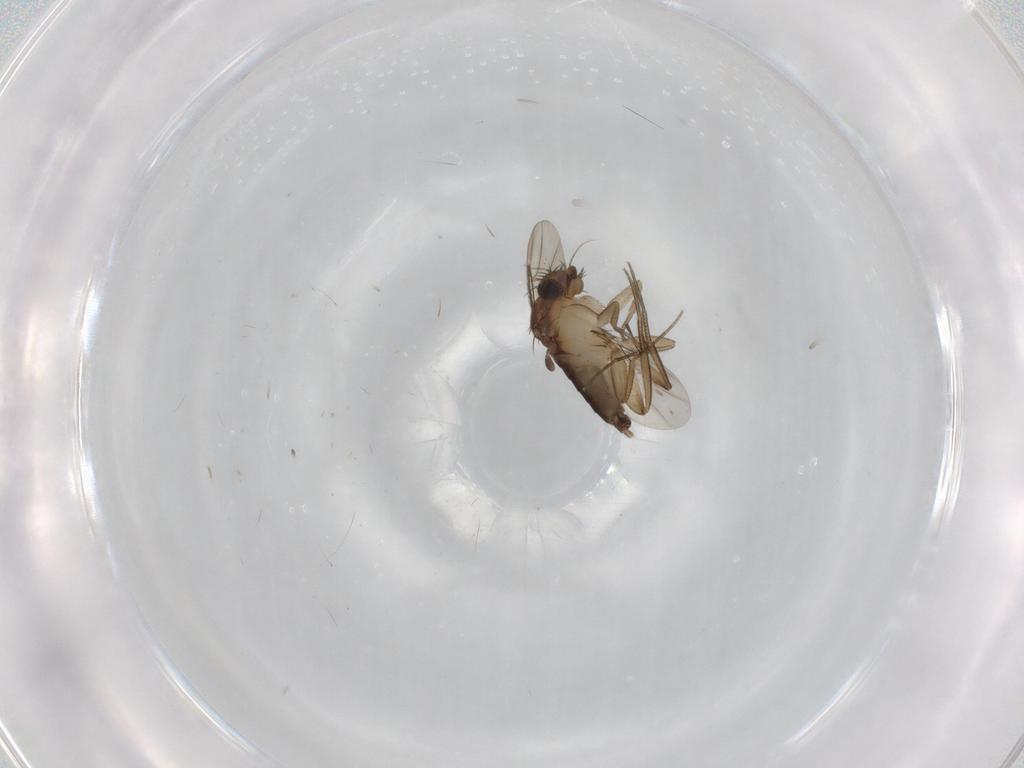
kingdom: Animalia
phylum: Arthropoda
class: Insecta
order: Diptera
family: Phoridae
